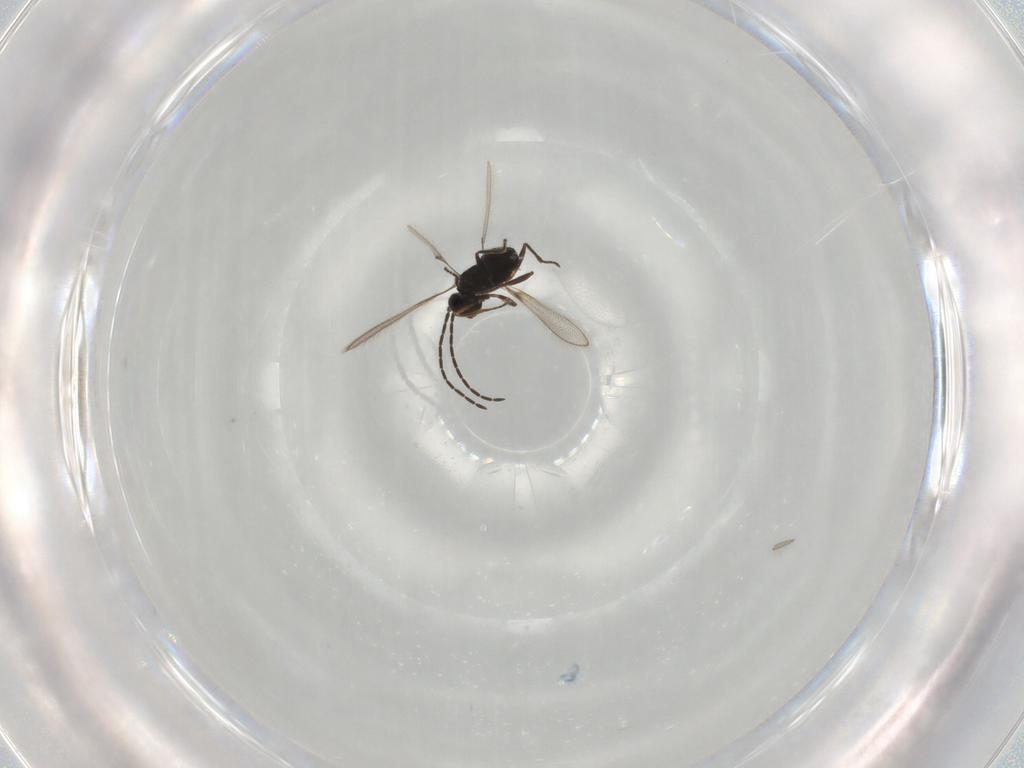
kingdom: Animalia
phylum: Arthropoda
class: Insecta
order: Hymenoptera
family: Mymaridae
